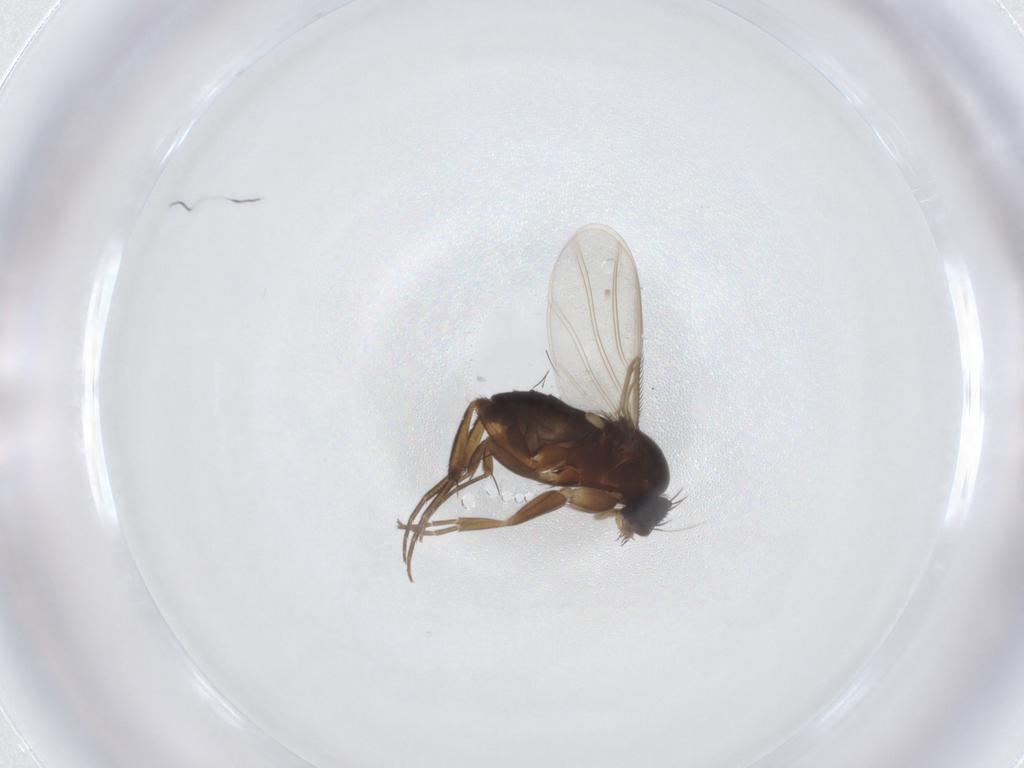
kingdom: Animalia
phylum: Arthropoda
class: Insecta
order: Diptera
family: Phoridae
